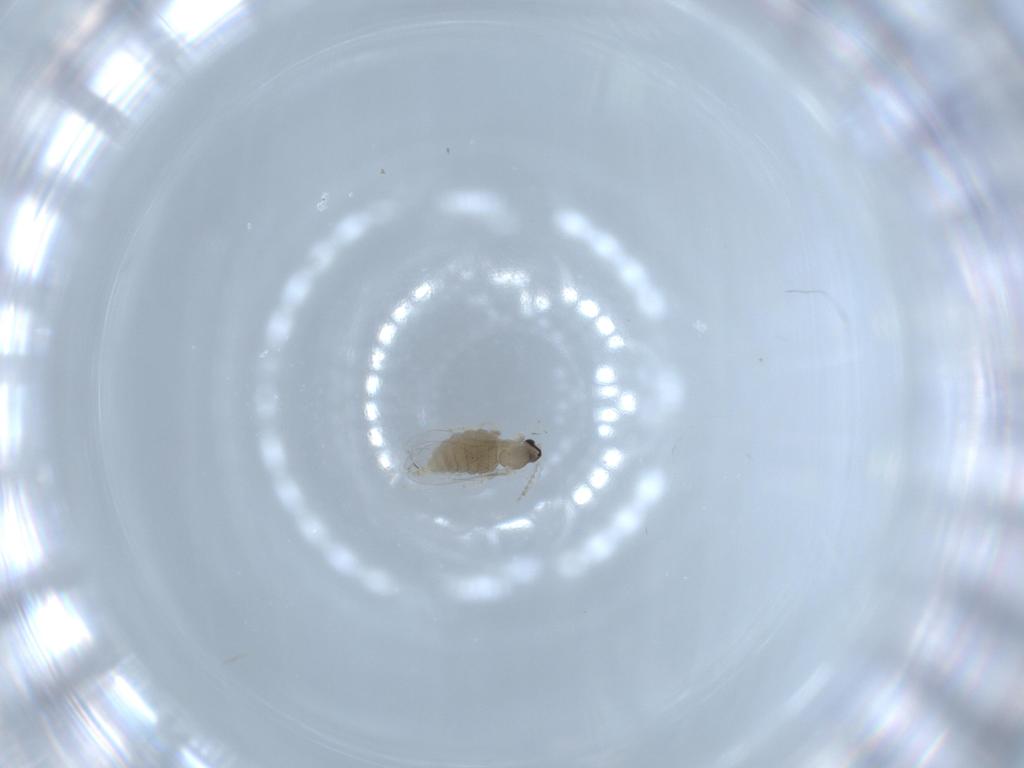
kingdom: Animalia
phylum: Arthropoda
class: Insecta
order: Diptera
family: Cecidomyiidae
